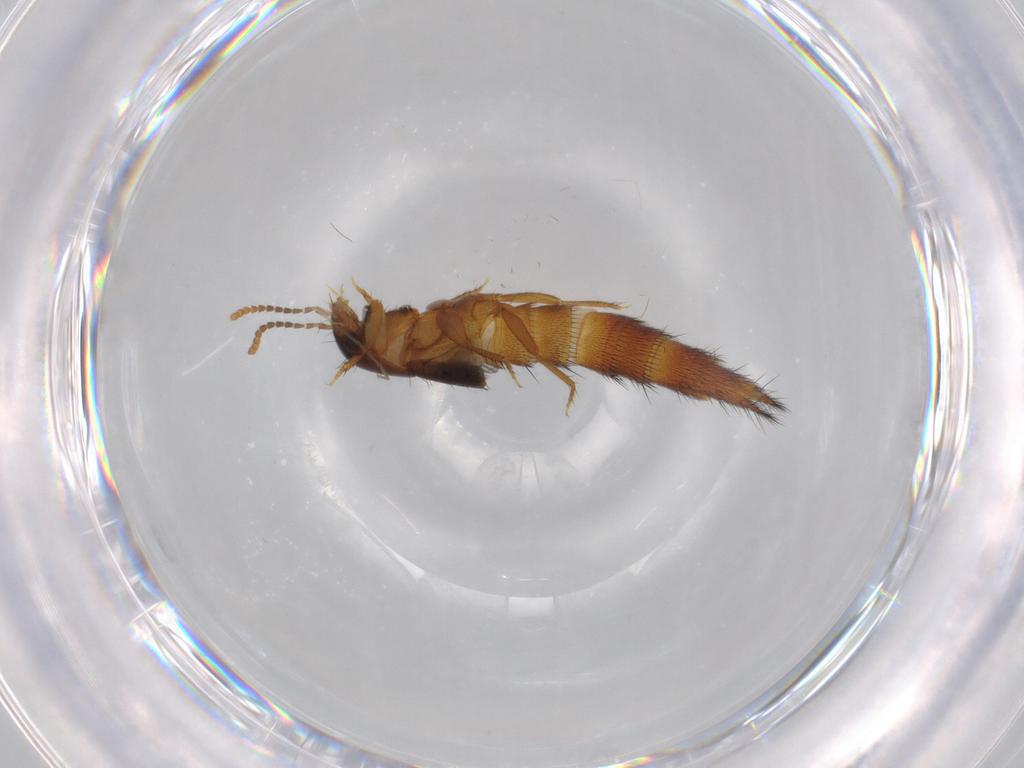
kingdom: Animalia
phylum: Arthropoda
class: Insecta
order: Coleoptera
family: Staphylinidae
